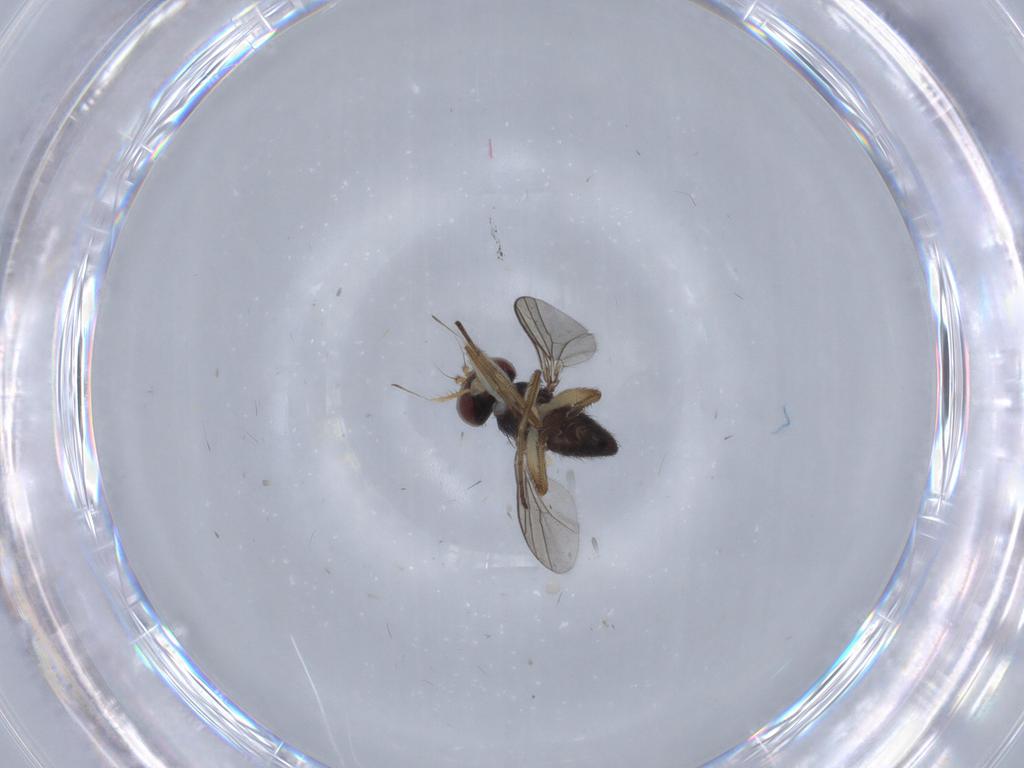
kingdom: Animalia
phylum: Arthropoda
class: Insecta
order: Diptera
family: Dolichopodidae
